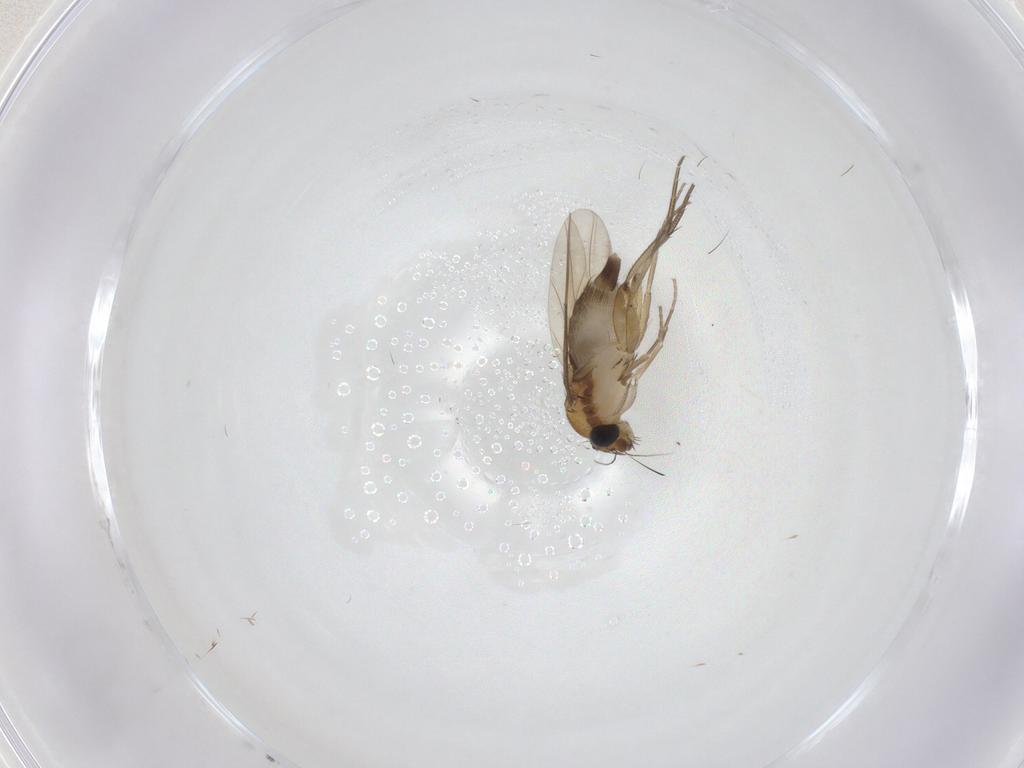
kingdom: Animalia
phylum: Arthropoda
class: Insecta
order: Diptera
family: Phoridae
